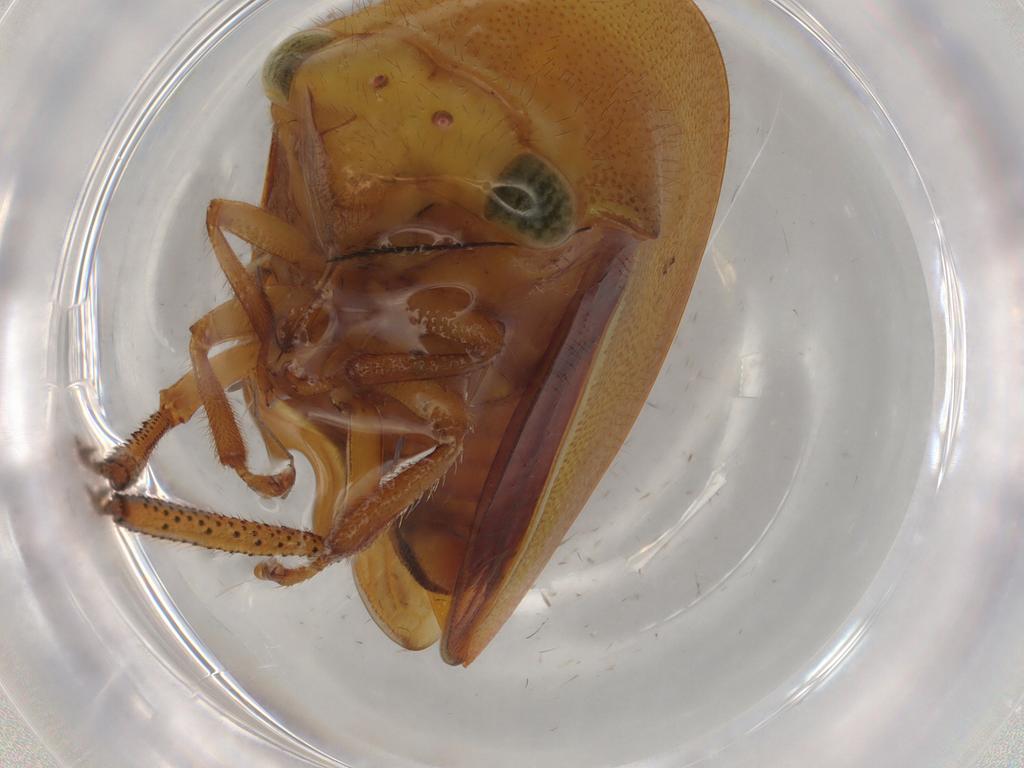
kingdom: Animalia
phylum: Arthropoda
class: Insecta
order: Hemiptera
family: Membracidae
